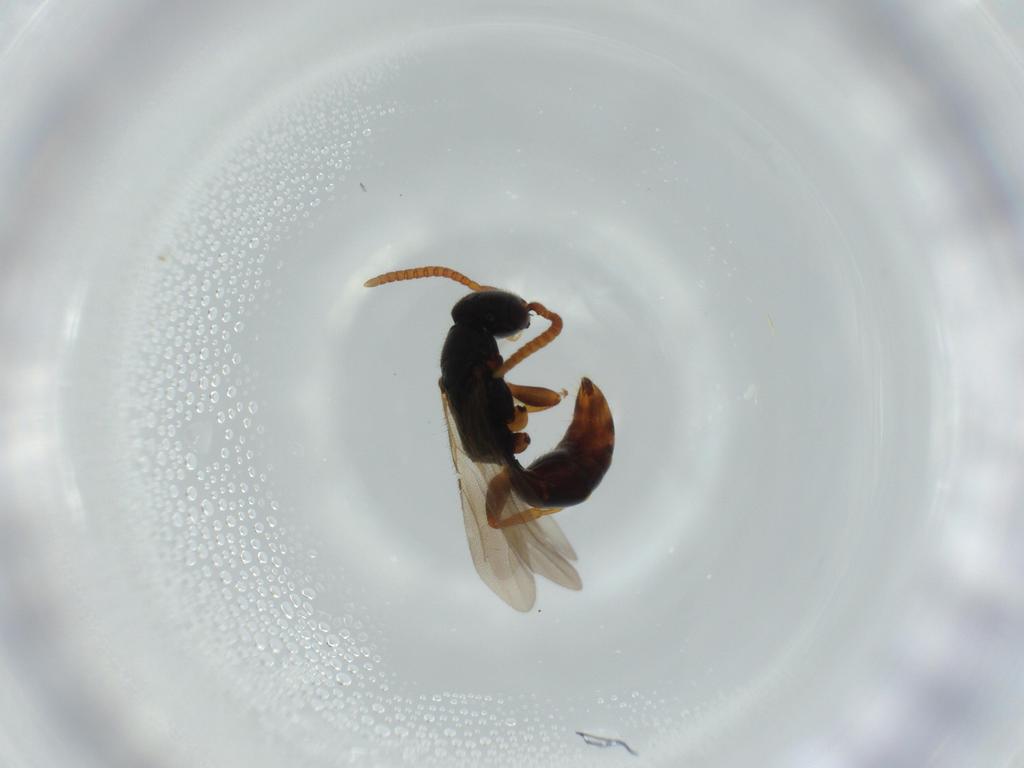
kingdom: Animalia
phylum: Arthropoda
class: Insecta
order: Hymenoptera
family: Bethylidae
